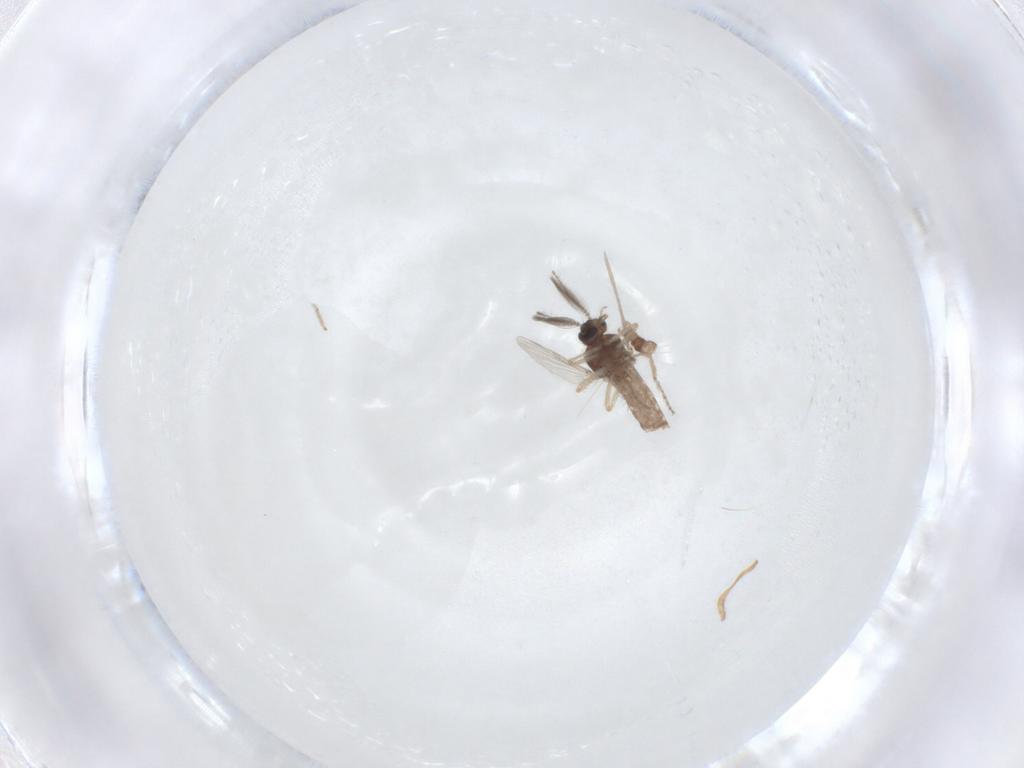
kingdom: Animalia
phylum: Arthropoda
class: Insecta
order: Diptera
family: Ceratopogonidae
